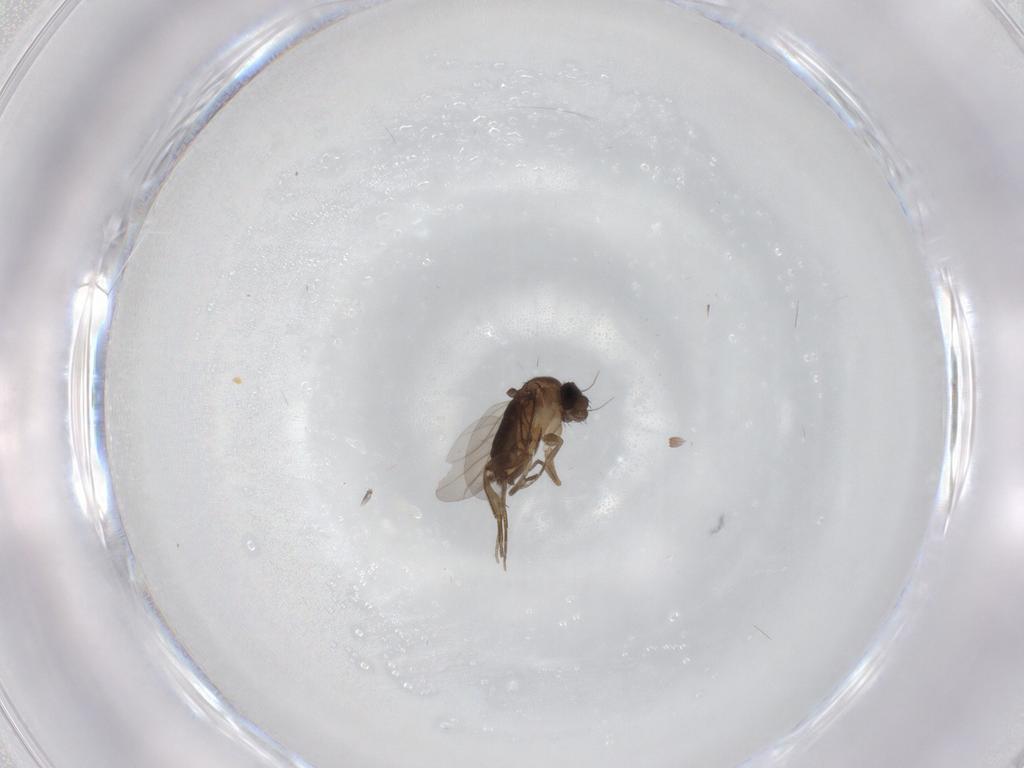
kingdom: Animalia
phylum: Arthropoda
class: Insecta
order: Diptera
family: Phoridae
